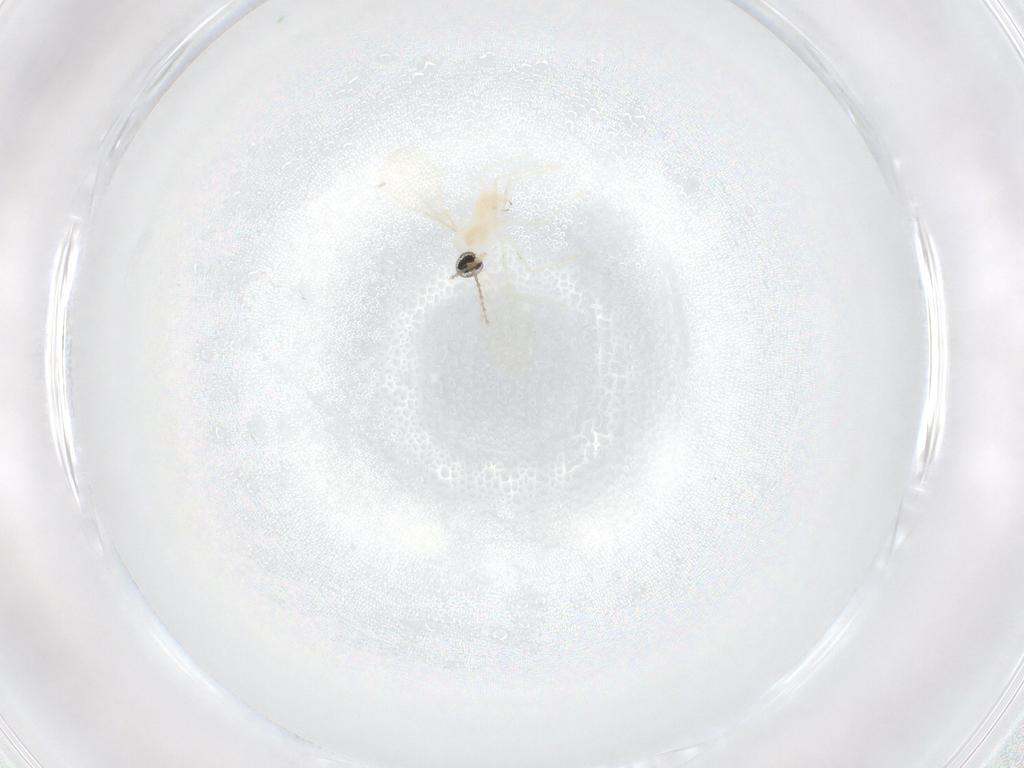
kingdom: Animalia
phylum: Arthropoda
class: Insecta
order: Diptera
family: Cecidomyiidae
